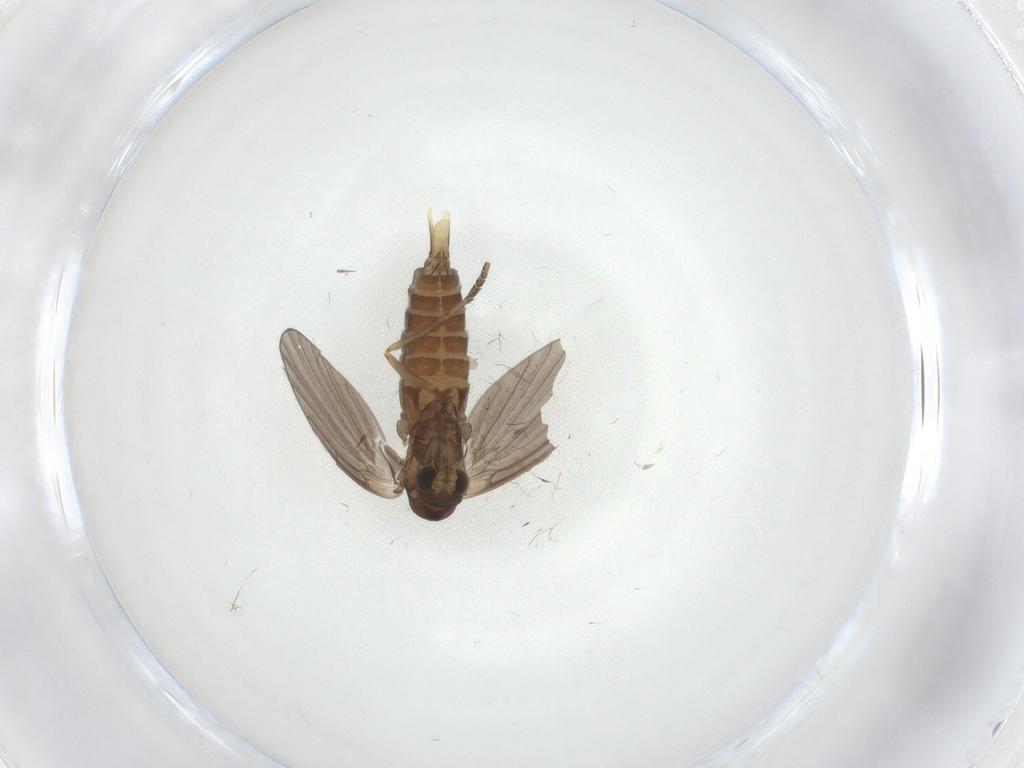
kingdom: Animalia
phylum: Arthropoda
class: Insecta
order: Diptera
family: Psychodidae
